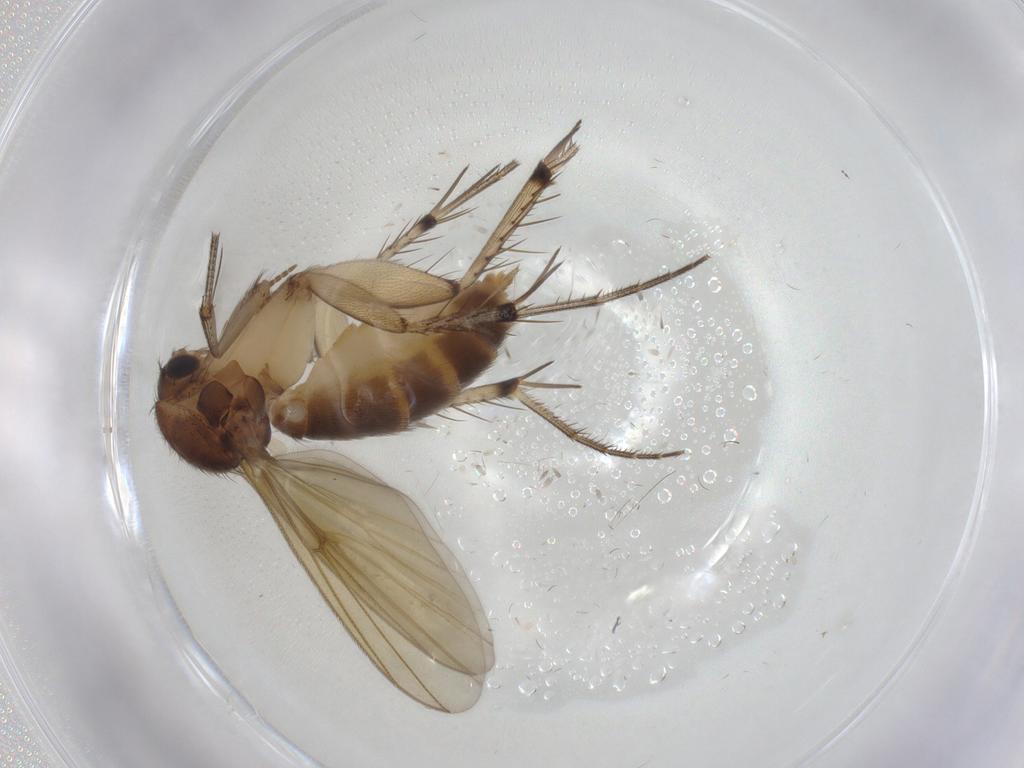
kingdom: Animalia
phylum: Arthropoda
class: Insecta
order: Diptera
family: Mycetophilidae
